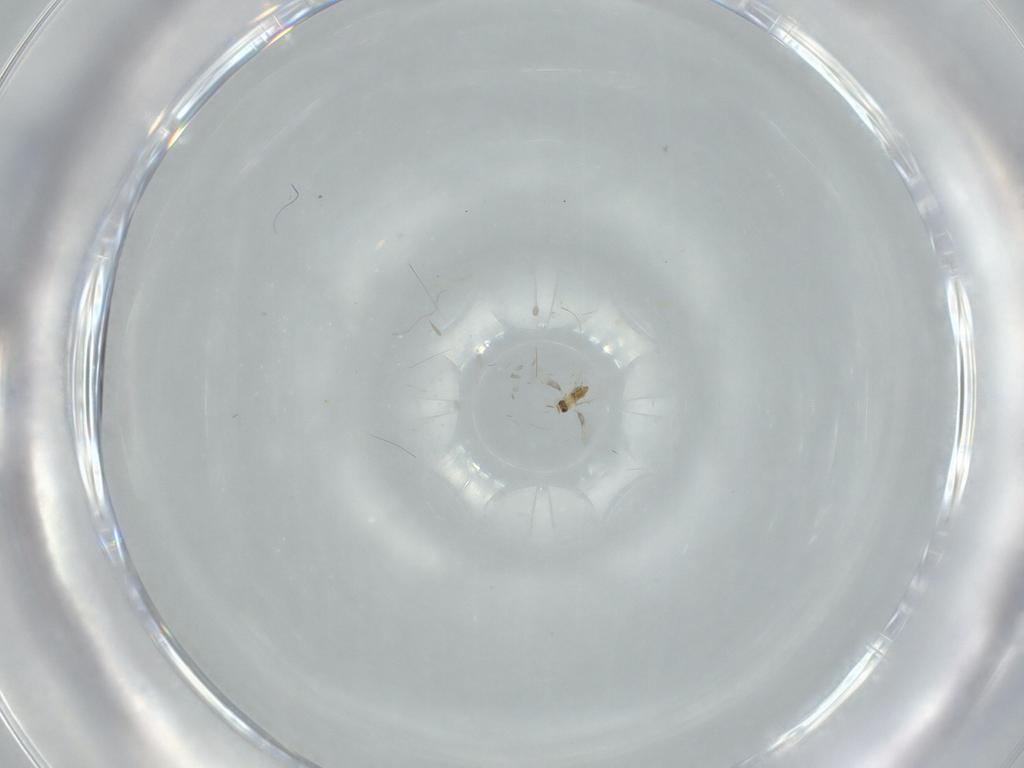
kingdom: Animalia
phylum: Arthropoda
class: Insecta
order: Hymenoptera
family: Trichogrammatidae
